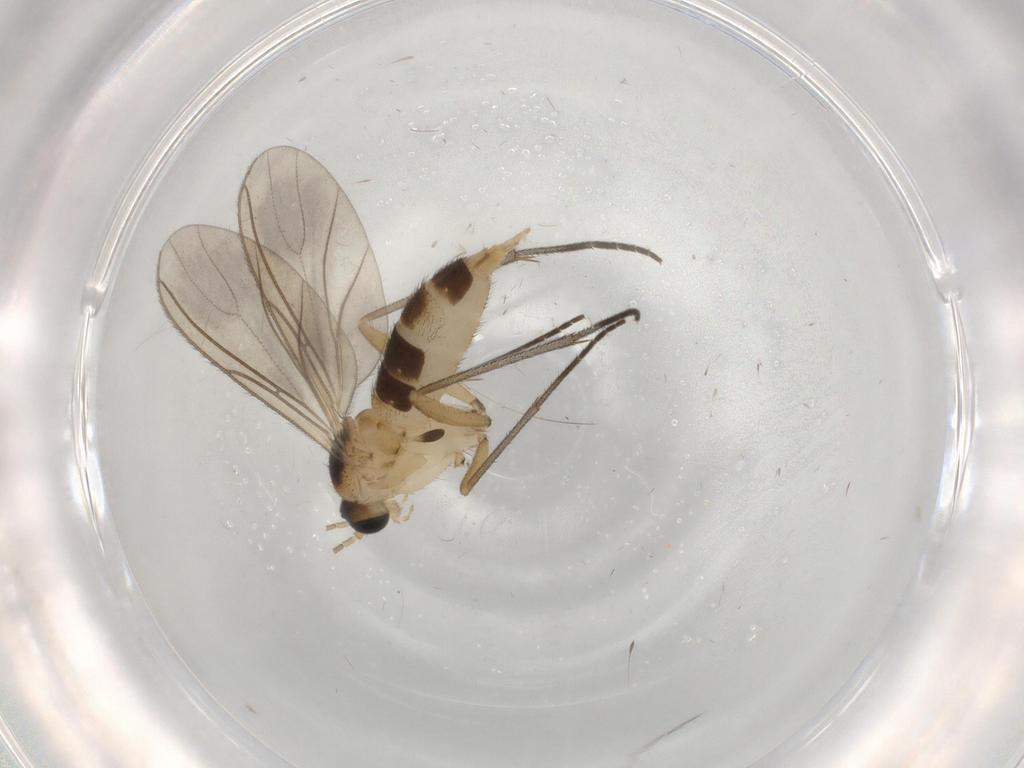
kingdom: Animalia
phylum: Arthropoda
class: Insecta
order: Diptera
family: Sciaridae
